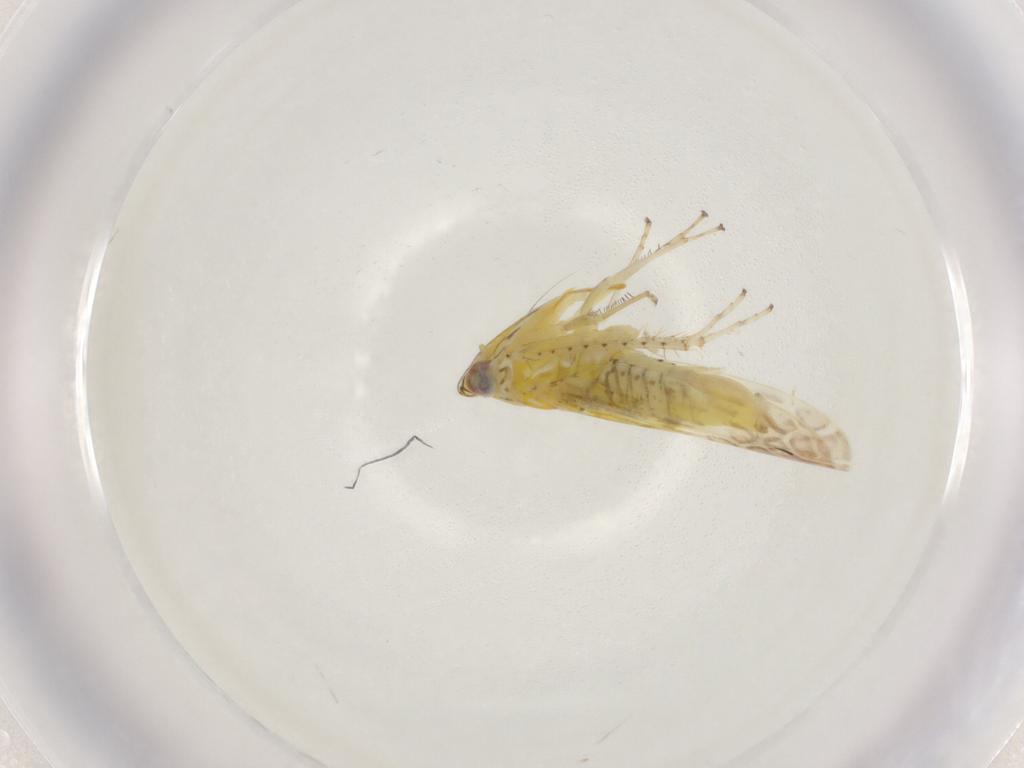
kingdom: Animalia
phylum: Arthropoda
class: Insecta
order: Hemiptera
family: Cicadellidae
